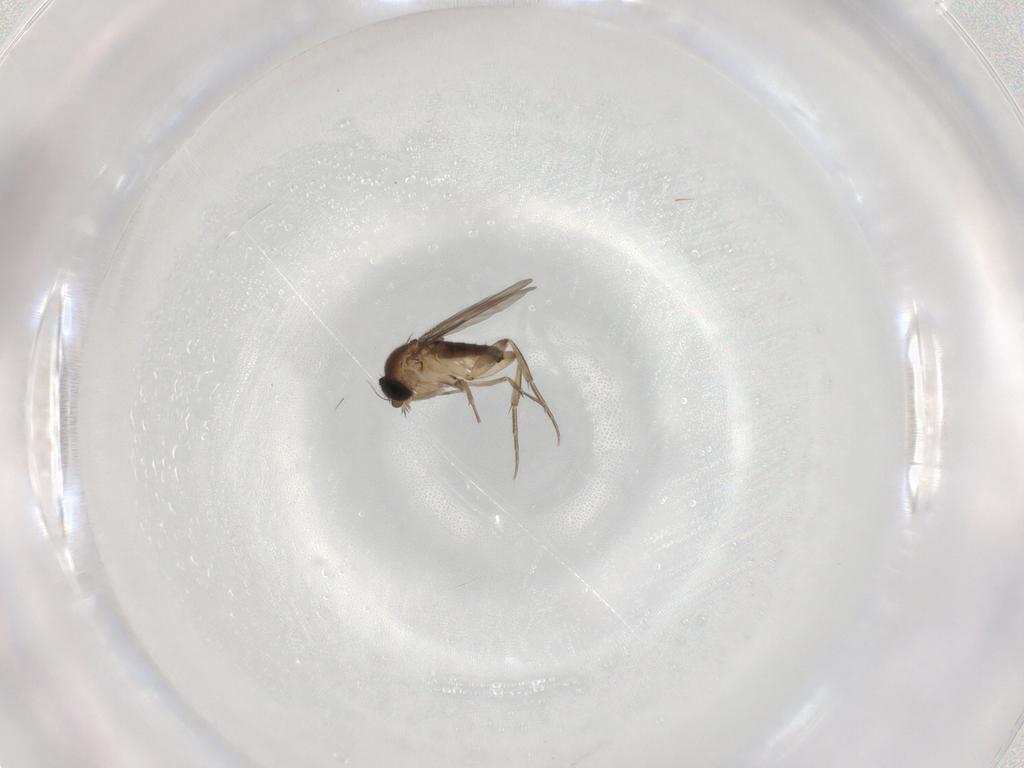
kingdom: Animalia
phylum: Arthropoda
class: Insecta
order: Diptera
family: Phoridae
